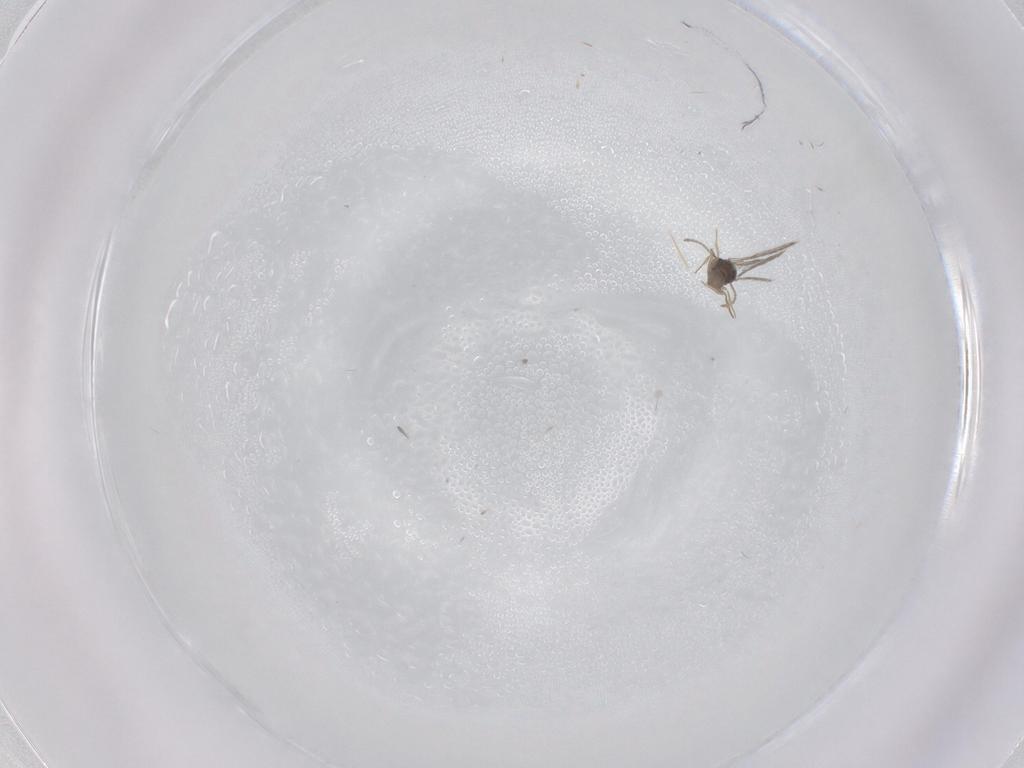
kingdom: Animalia
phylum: Arthropoda
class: Insecta
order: Hymenoptera
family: Scelionidae
